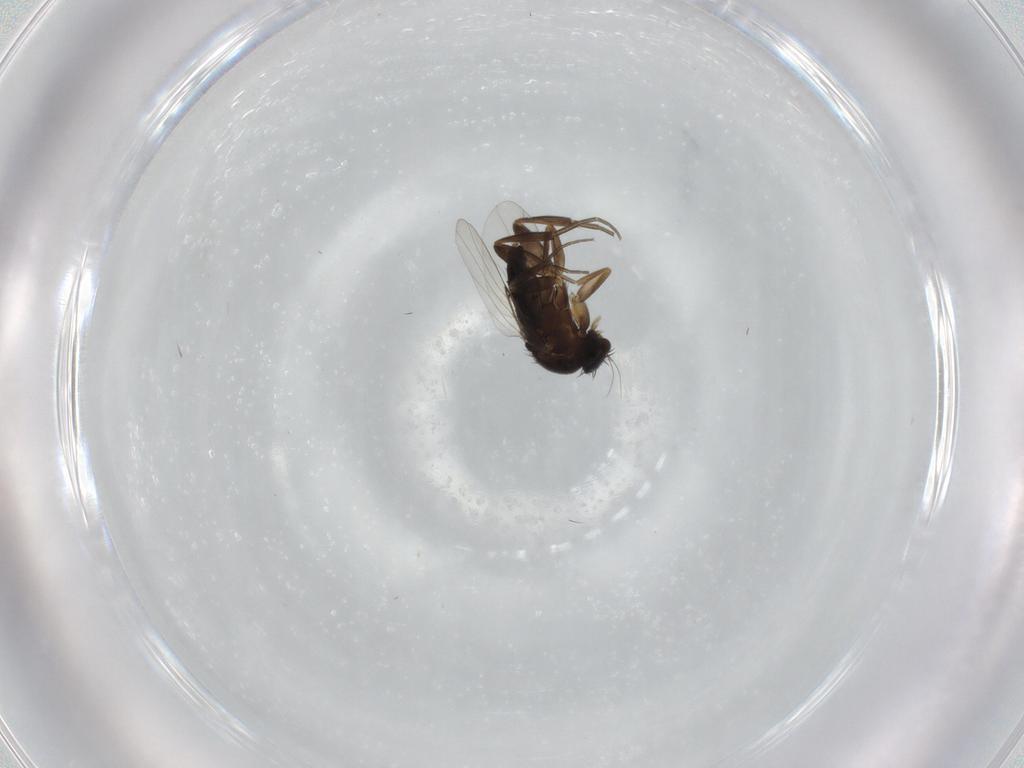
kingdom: Animalia
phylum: Arthropoda
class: Insecta
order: Diptera
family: Phoridae
